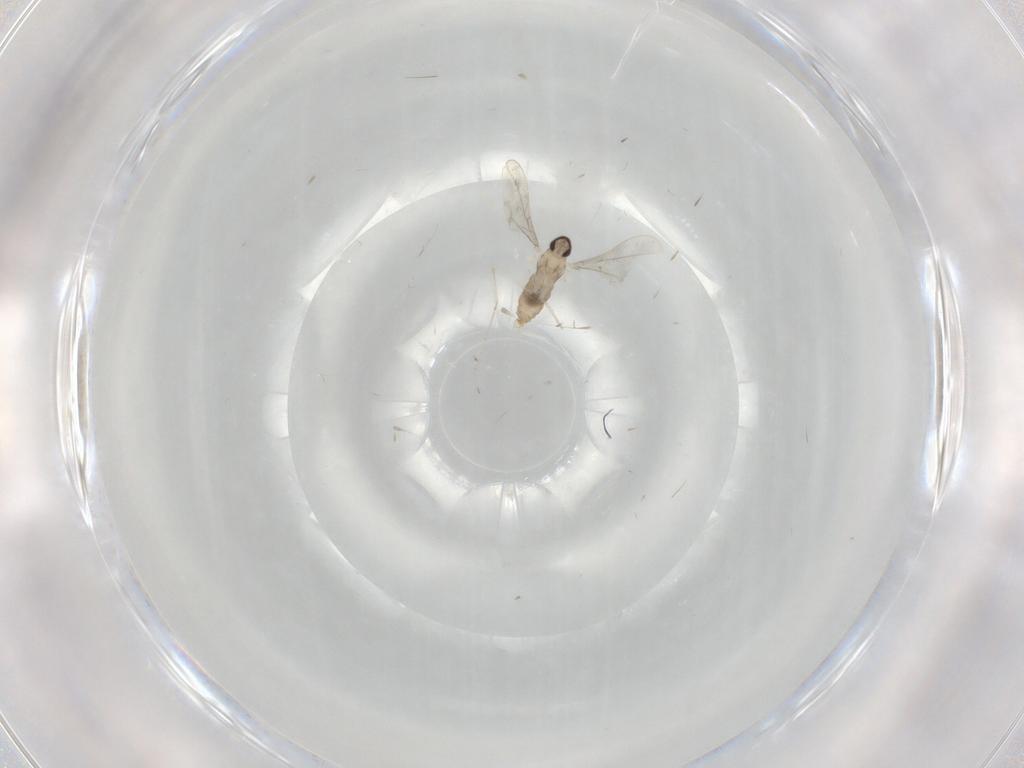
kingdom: Animalia
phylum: Arthropoda
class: Insecta
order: Diptera
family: Cecidomyiidae
